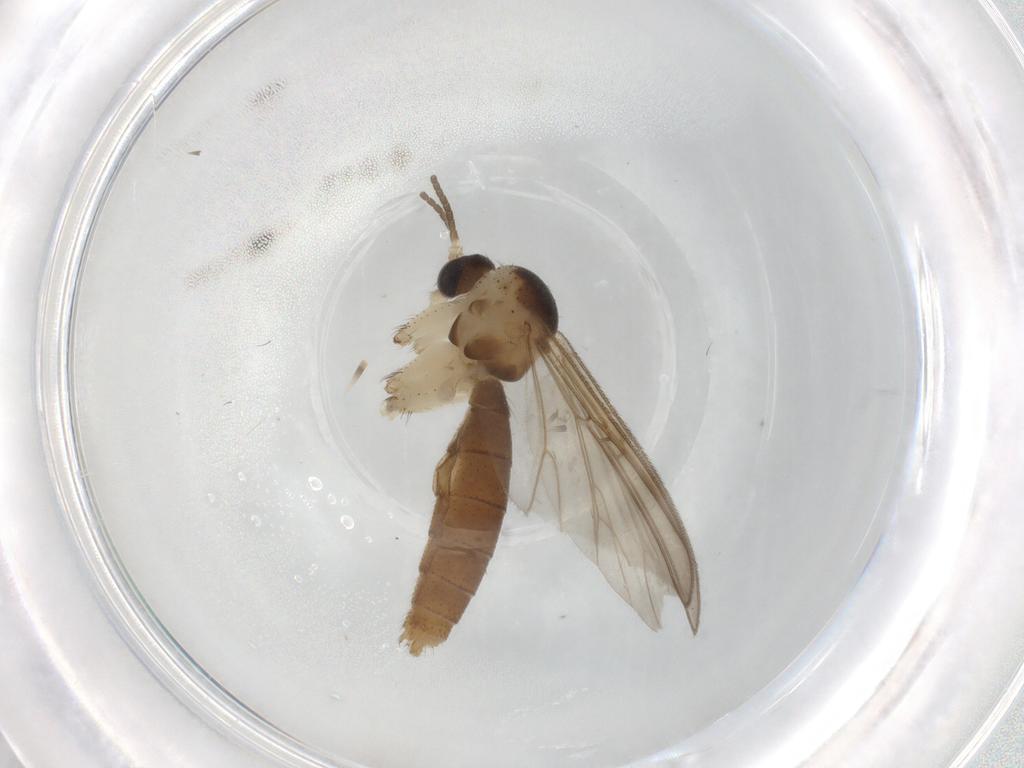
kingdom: Animalia
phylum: Arthropoda
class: Insecta
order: Diptera
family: Mycetophilidae
